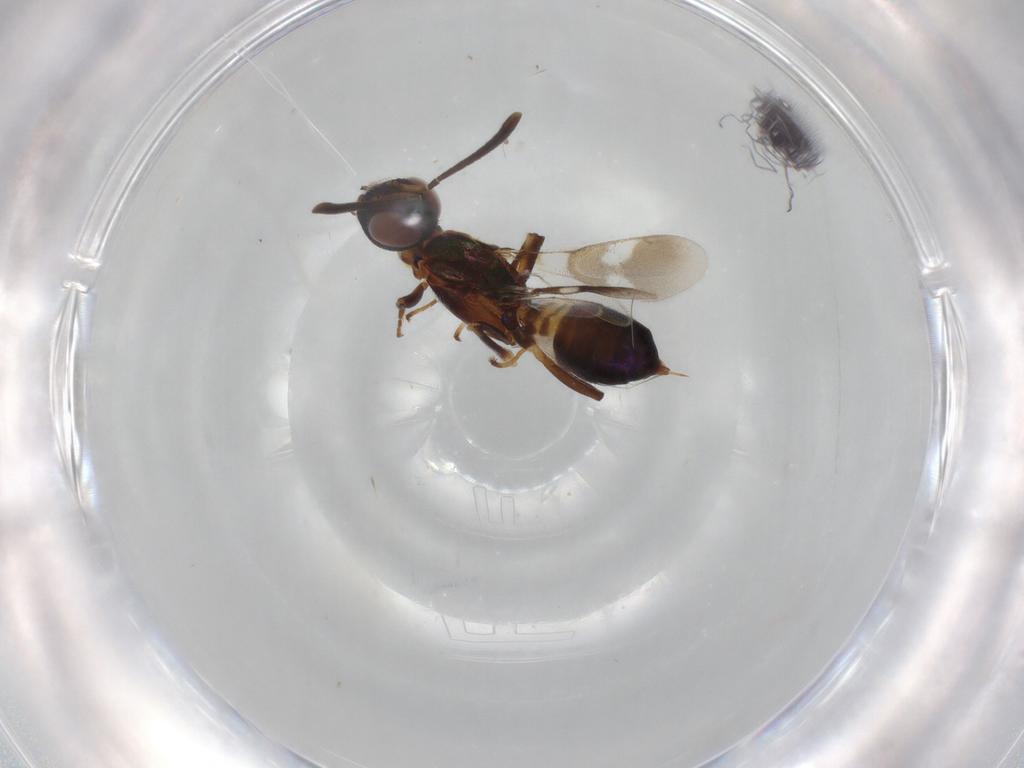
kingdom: Animalia
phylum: Arthropoda
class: Insecta
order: Hymenoptera
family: Eupelmidae
